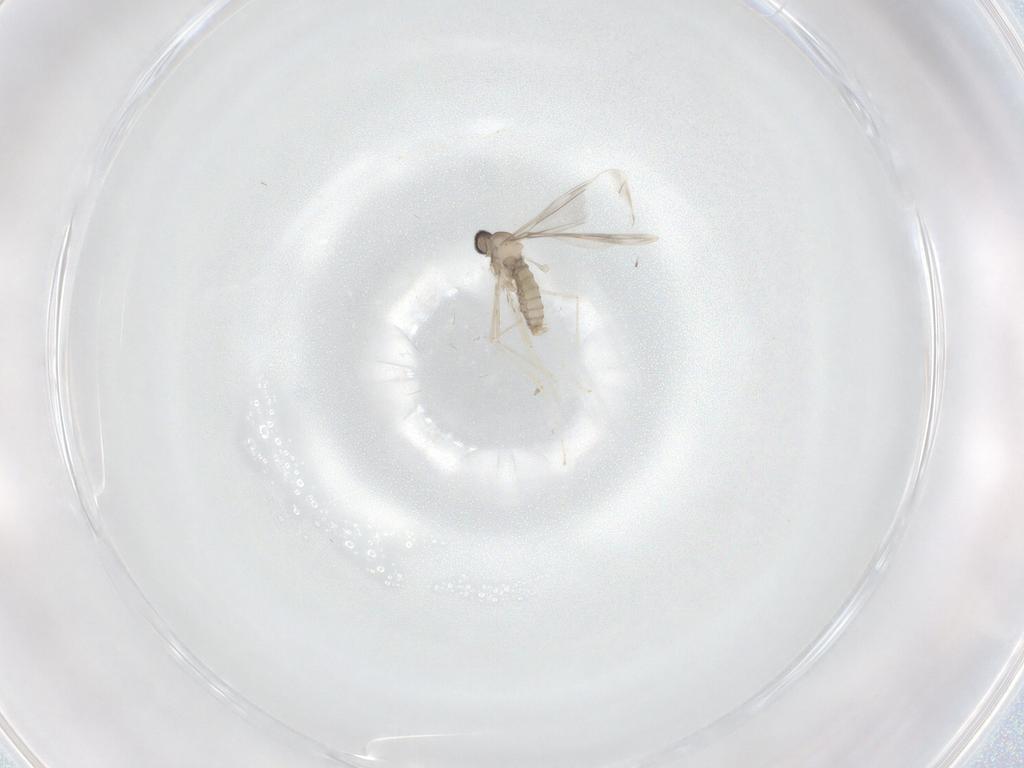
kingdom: Animalia
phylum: Arthropoda
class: Insecta
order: Diptera
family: Cecidomyiidae
